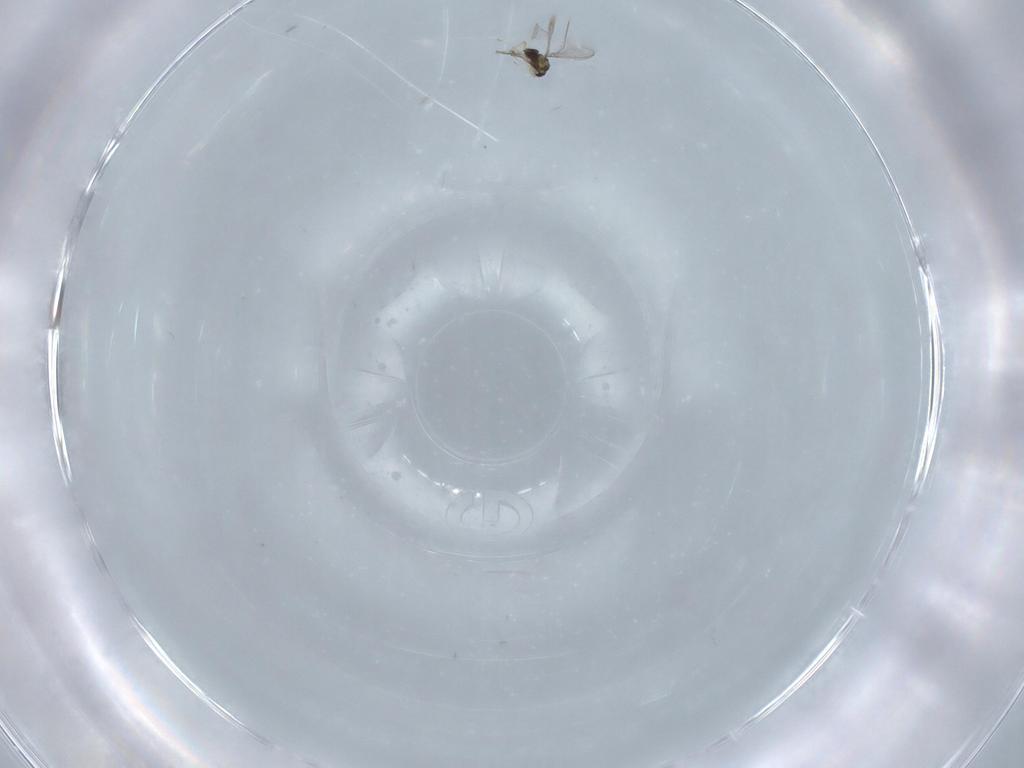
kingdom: Animalia
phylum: Arthropoda
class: Insecta
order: Hymenoptera
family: Mymaridae
